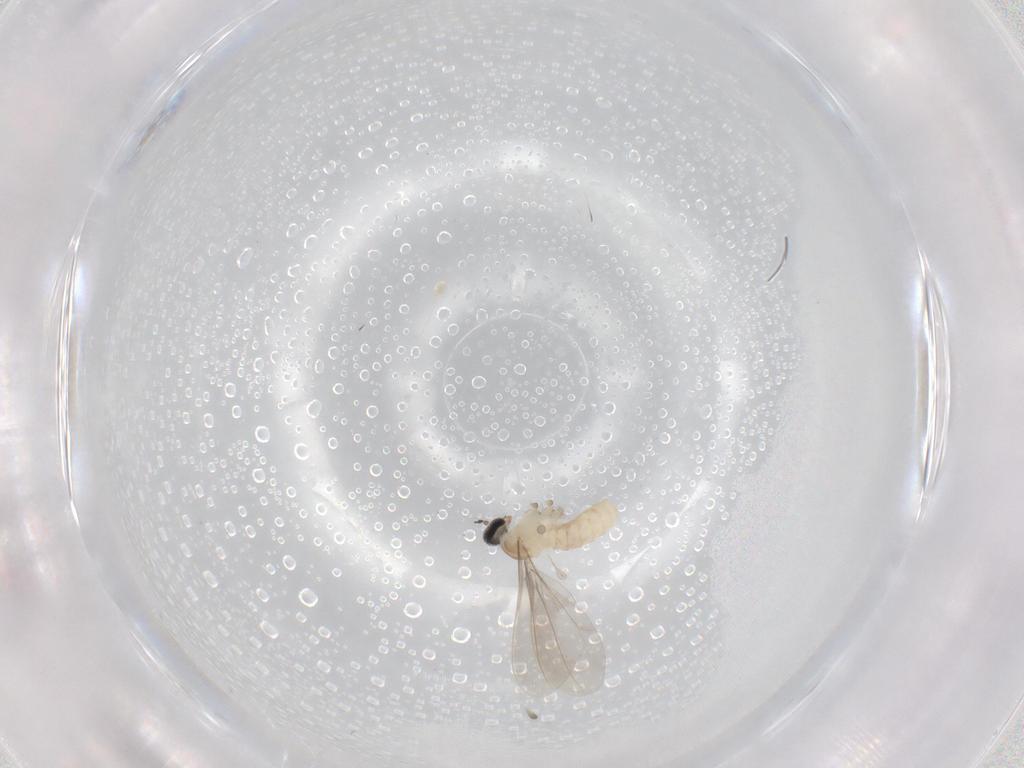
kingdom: Animalia
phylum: Arthropoda
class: Insecta
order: Diptera
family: Cecidomyiidae
